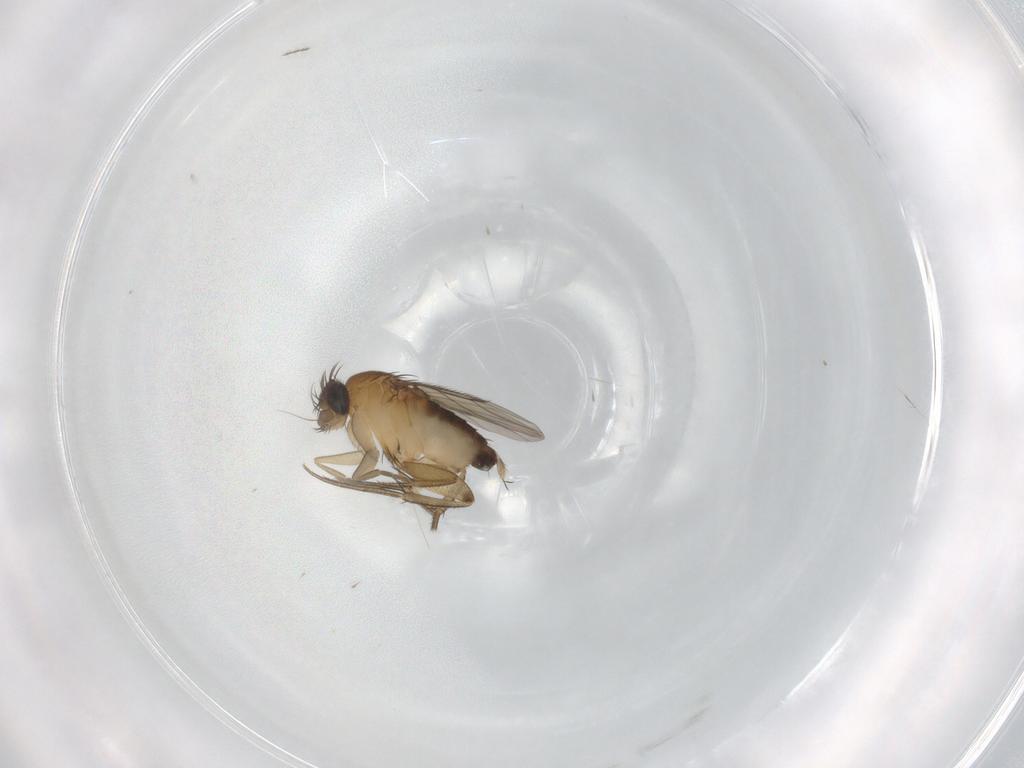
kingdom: Animalia
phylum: Arthropoda
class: Insecta
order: Diptera
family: Phoridae
